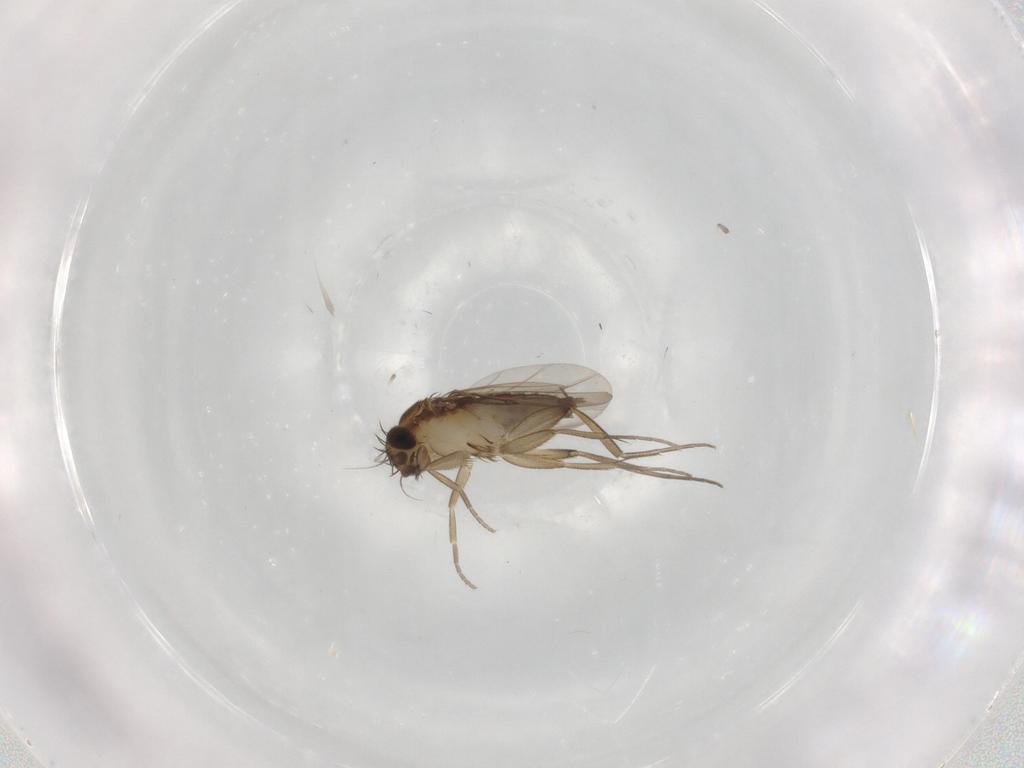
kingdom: Animalia
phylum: Arthropoda
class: Insecta
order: Diptera
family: Phoridae
